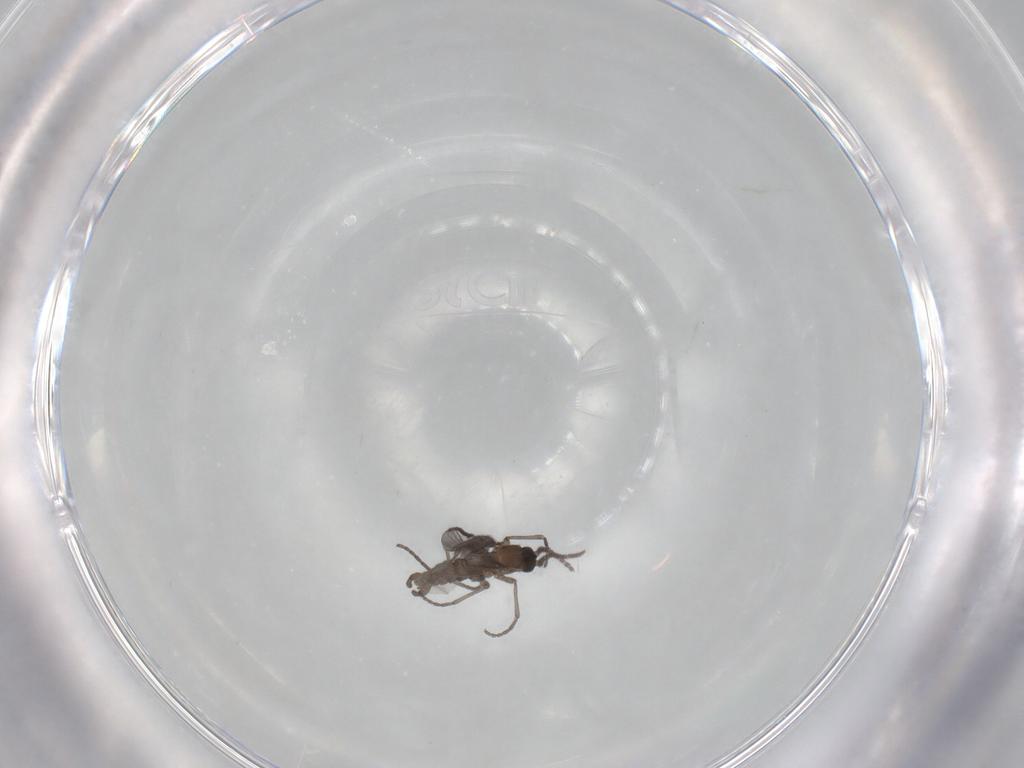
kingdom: Animalia
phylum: Arthropoda
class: Insecta
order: Diptera
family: Sciaridae
